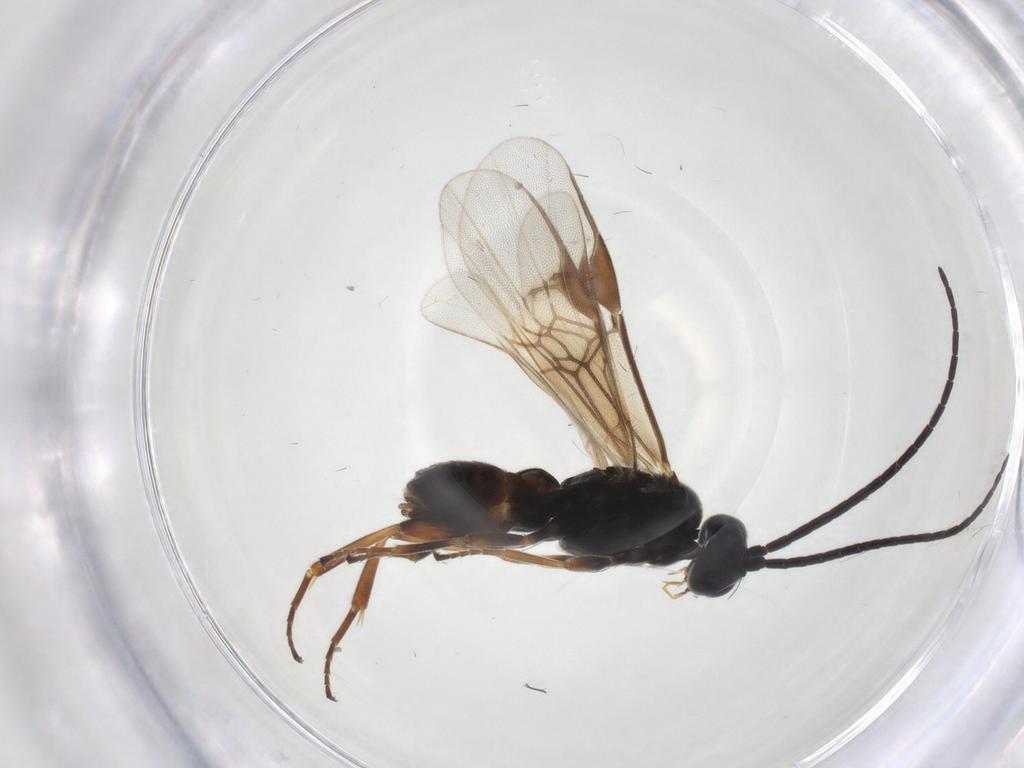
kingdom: Animalia
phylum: Arthropoda
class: Insecta
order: Hymenoptera
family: Braconidae
